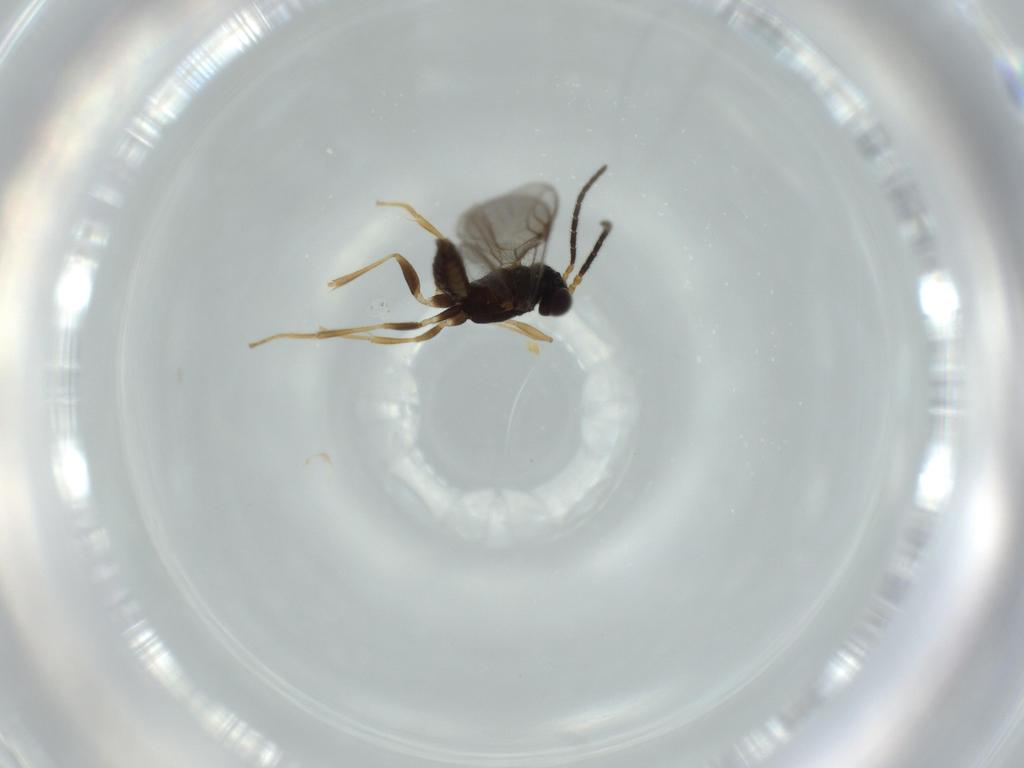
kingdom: Animalia
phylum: Arthropoda
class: Insecta
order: Hymenoptera
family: Dryinidae
